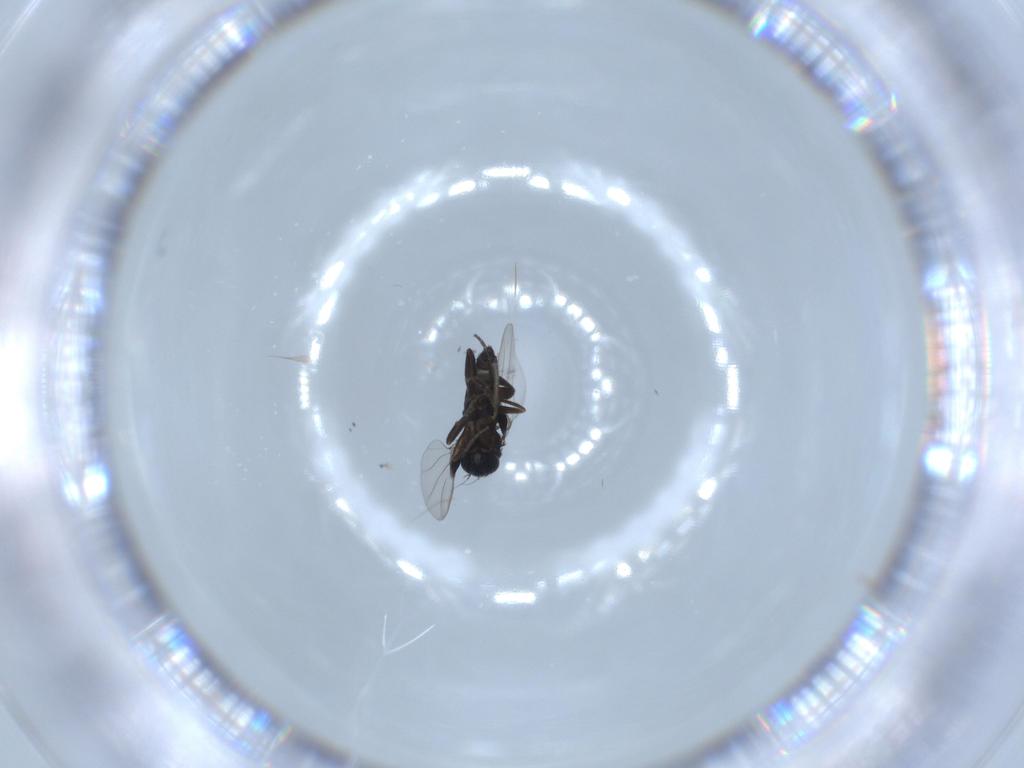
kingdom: Animalia
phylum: Arthropoda
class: Insecta
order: Diptera
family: Phoridae
